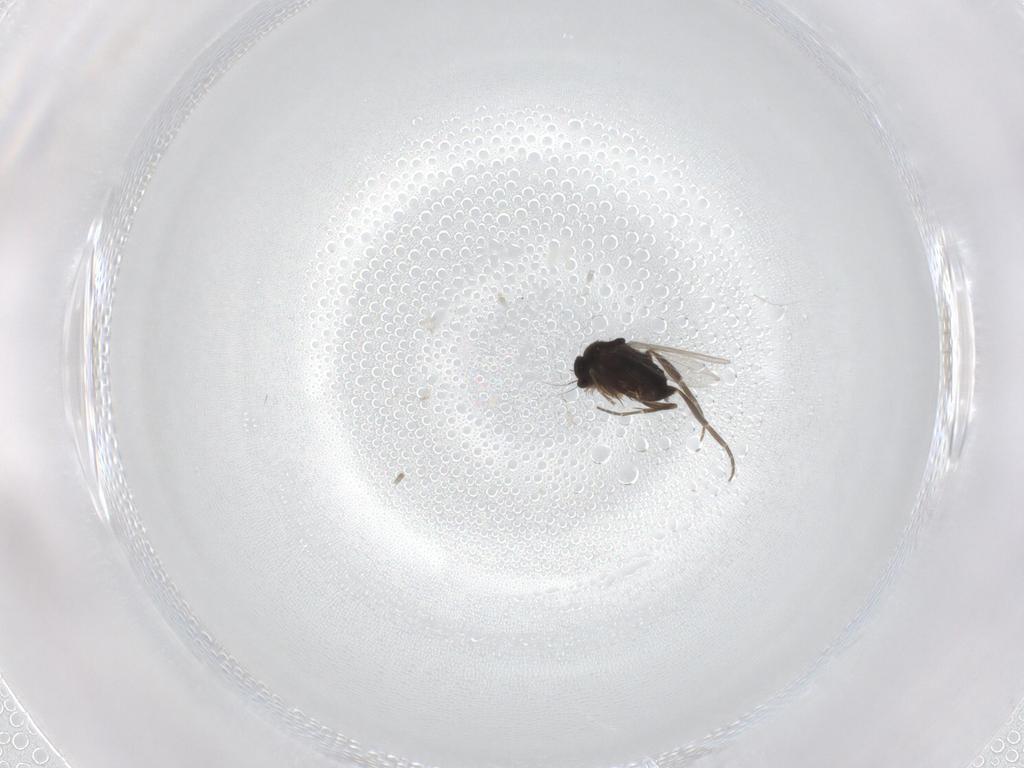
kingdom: Animalia
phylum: Arthropoda
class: Insecta
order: Diptera
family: Phoridae
